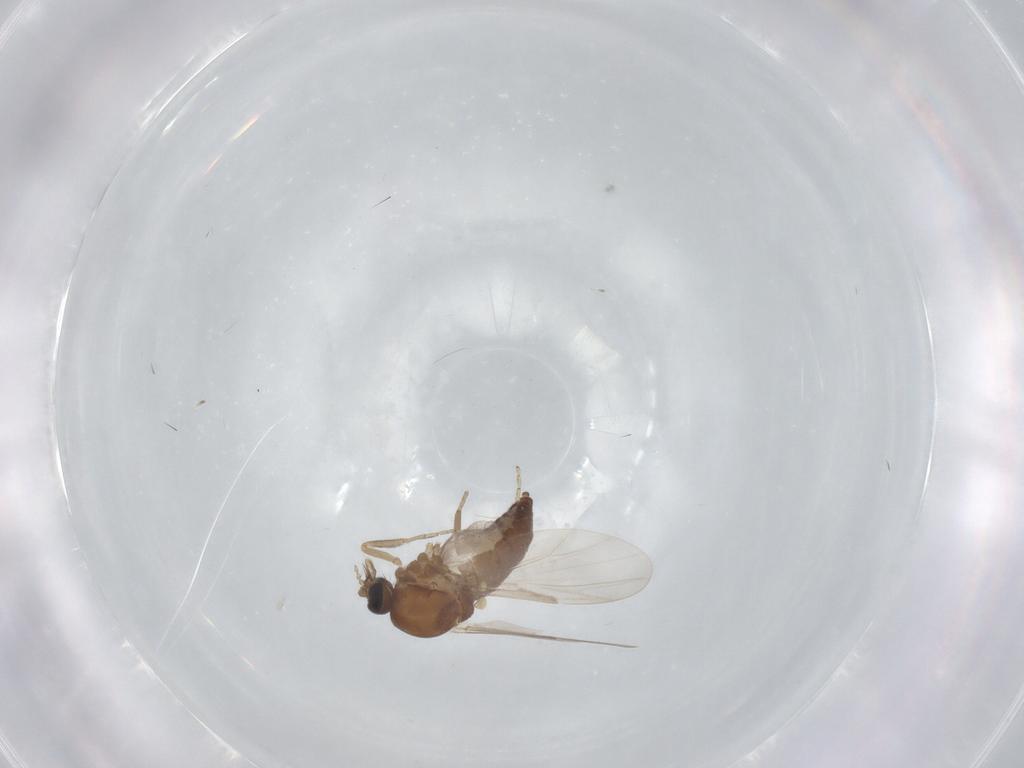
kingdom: Animalia
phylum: Arthropoda
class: Insecta
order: Diptera
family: Ceratopogonidae
